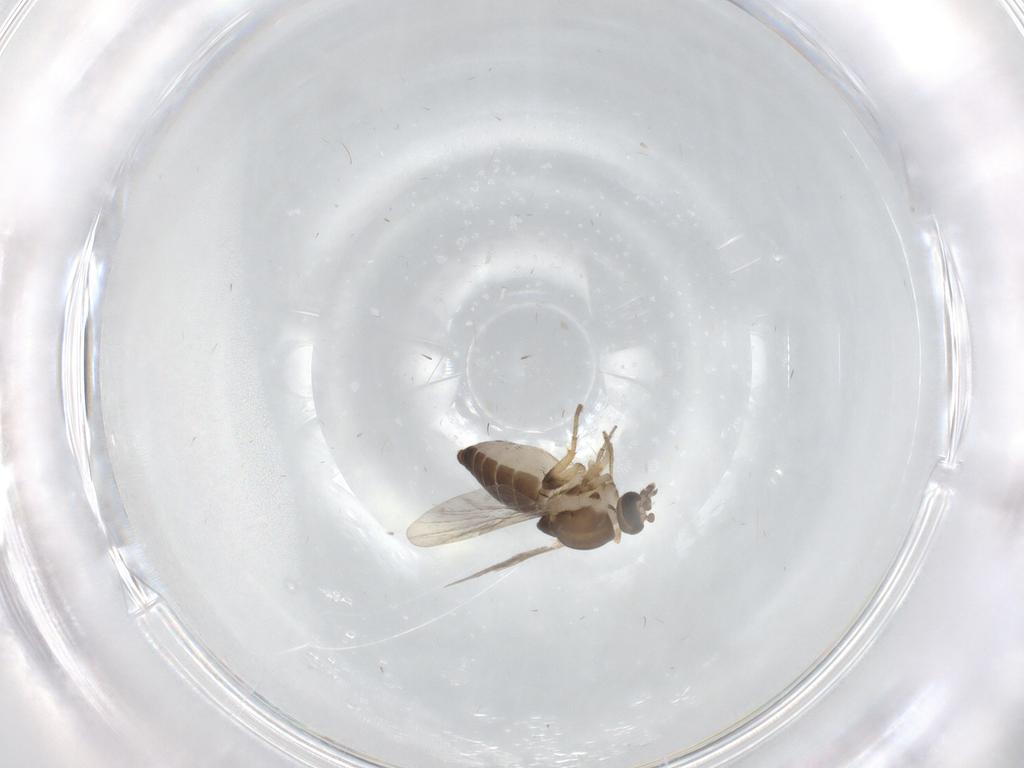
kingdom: Animalia
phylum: Arthropoda
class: Insecta
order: Diptera
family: Ceratopogonidae
